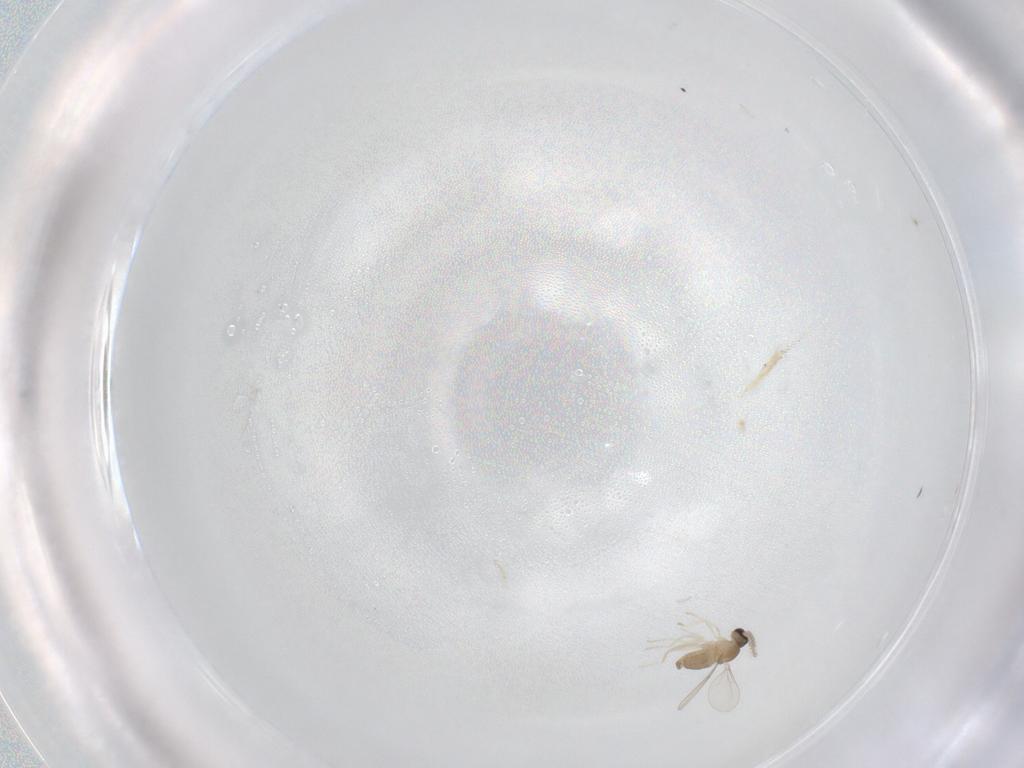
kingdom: Animalia
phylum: Arthropoda
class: Insecta
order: Diptera
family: Cecidomyiidae
